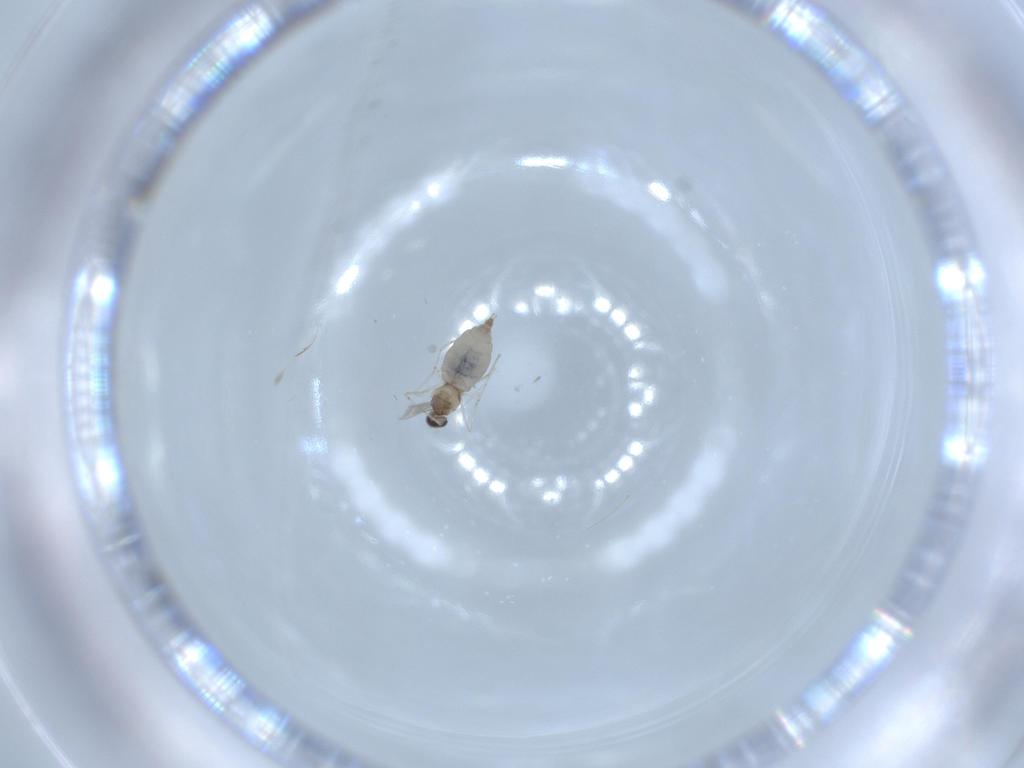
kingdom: Animalia
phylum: Arthropoda
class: Insecta
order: Diptera
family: Cecidomyiidae
